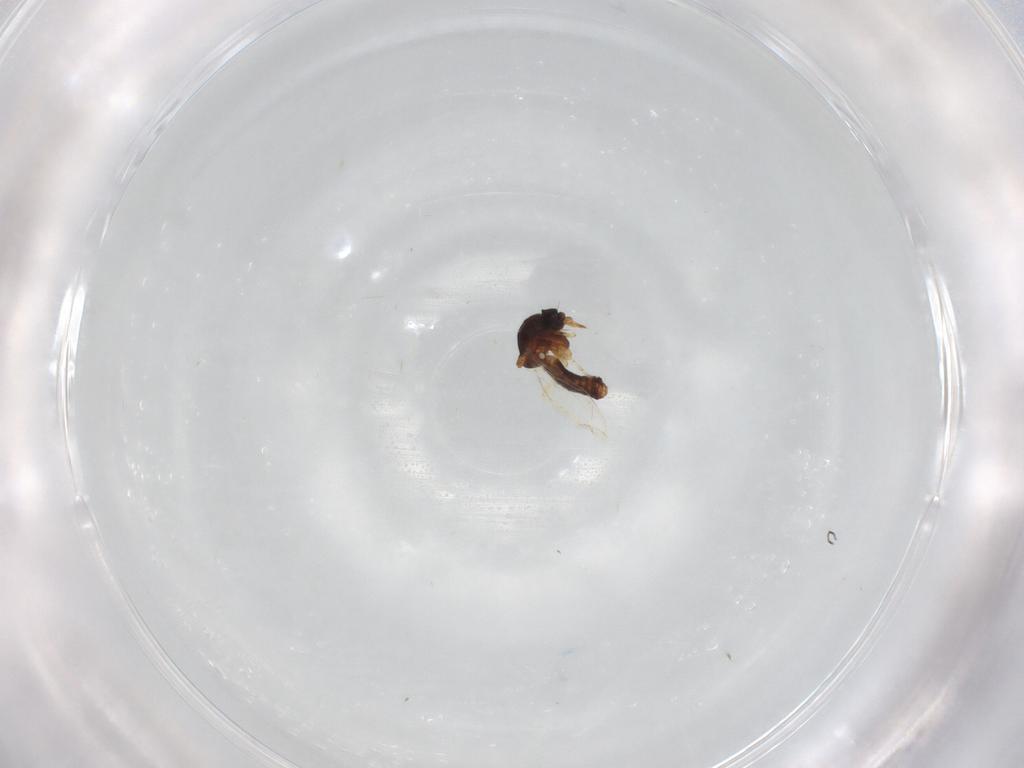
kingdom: Animalia
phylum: Arthropoda
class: Insecta
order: Diptera
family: Ceratopogonidae
